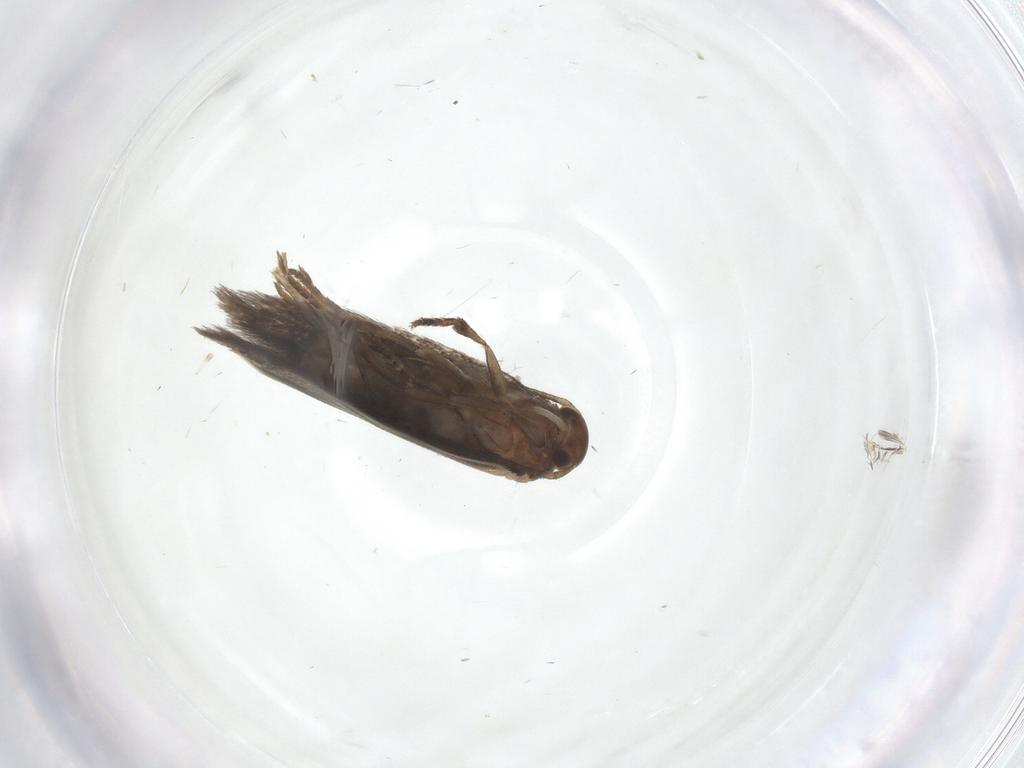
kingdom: Animalia
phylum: Arthropoda
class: Insecta
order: Lepidoptera
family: Elachistidae
